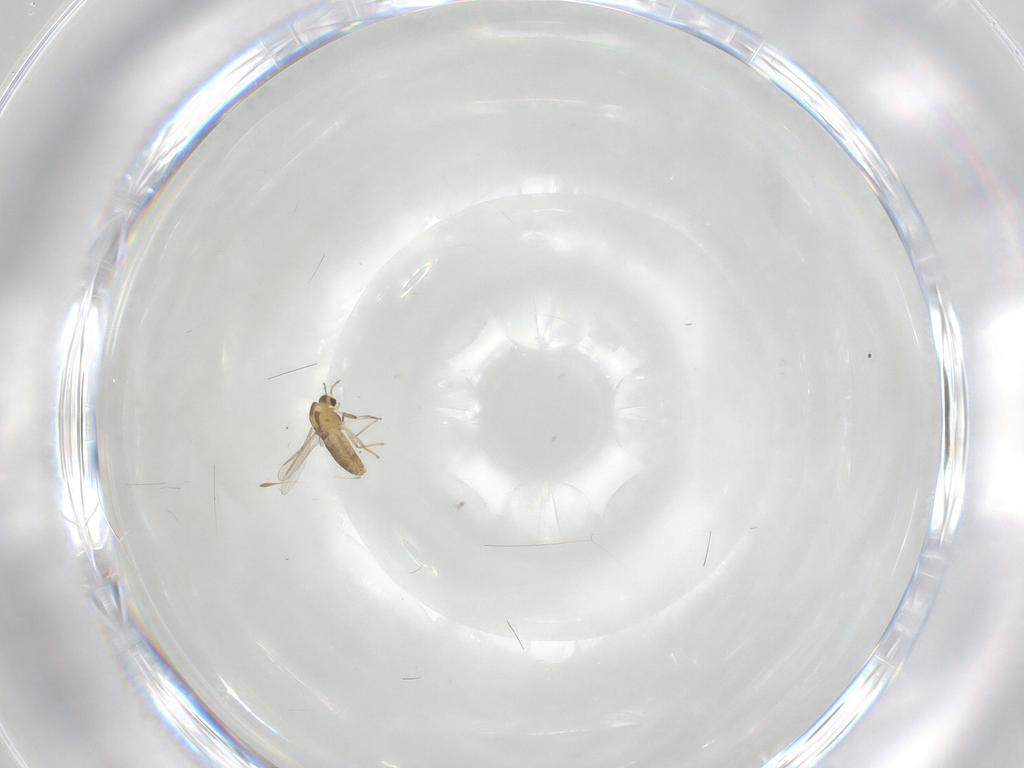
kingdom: Animalia
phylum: Arthropoda
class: Insecta
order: Diptera
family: Chironomidae
